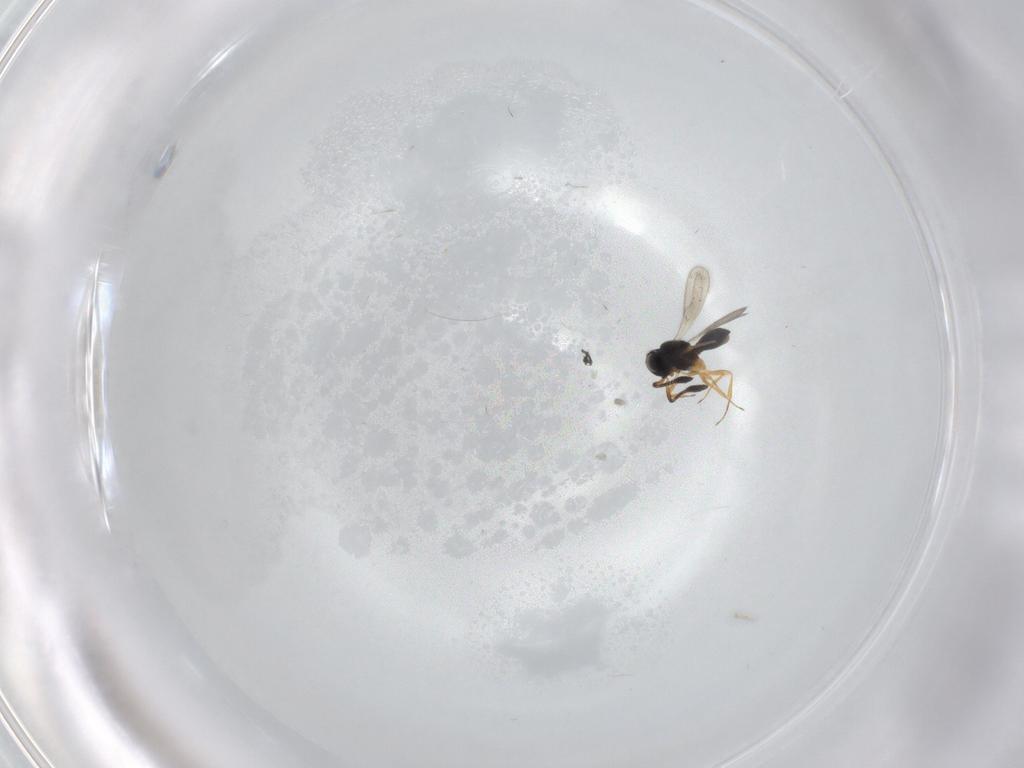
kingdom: Animalia
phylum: Arthropoda
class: Insecta
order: Hymenoptera
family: Scelionidae
